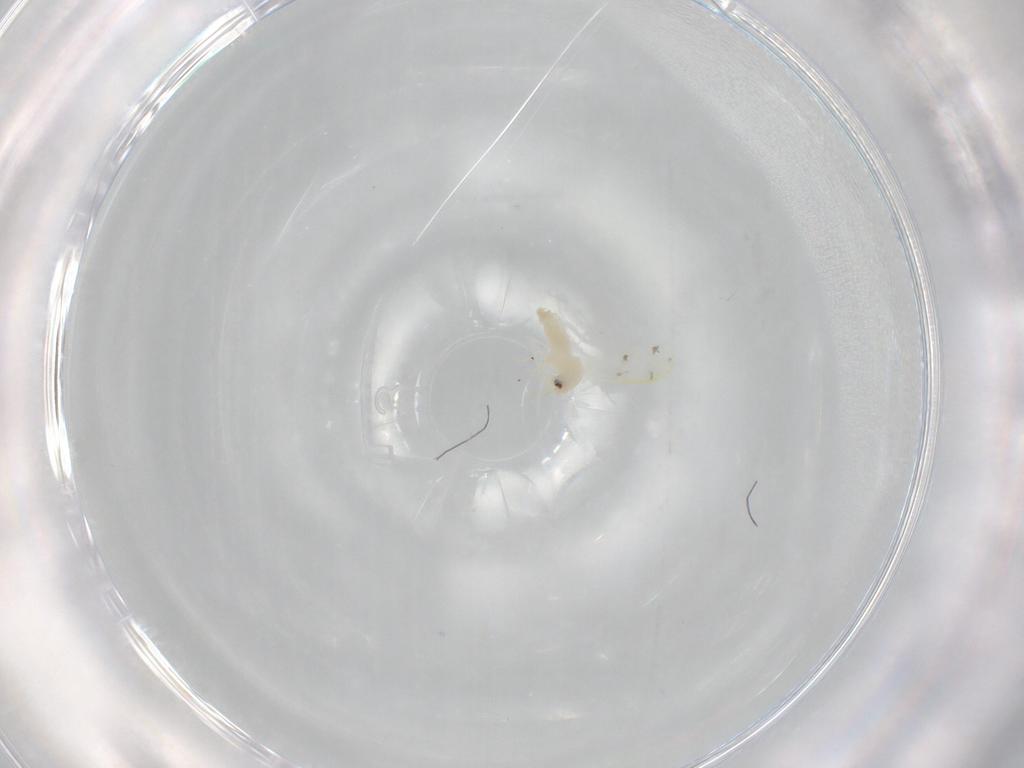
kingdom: Animalia
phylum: Arthropoda
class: Insecta
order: Hemiptera
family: Aleyrodidae
